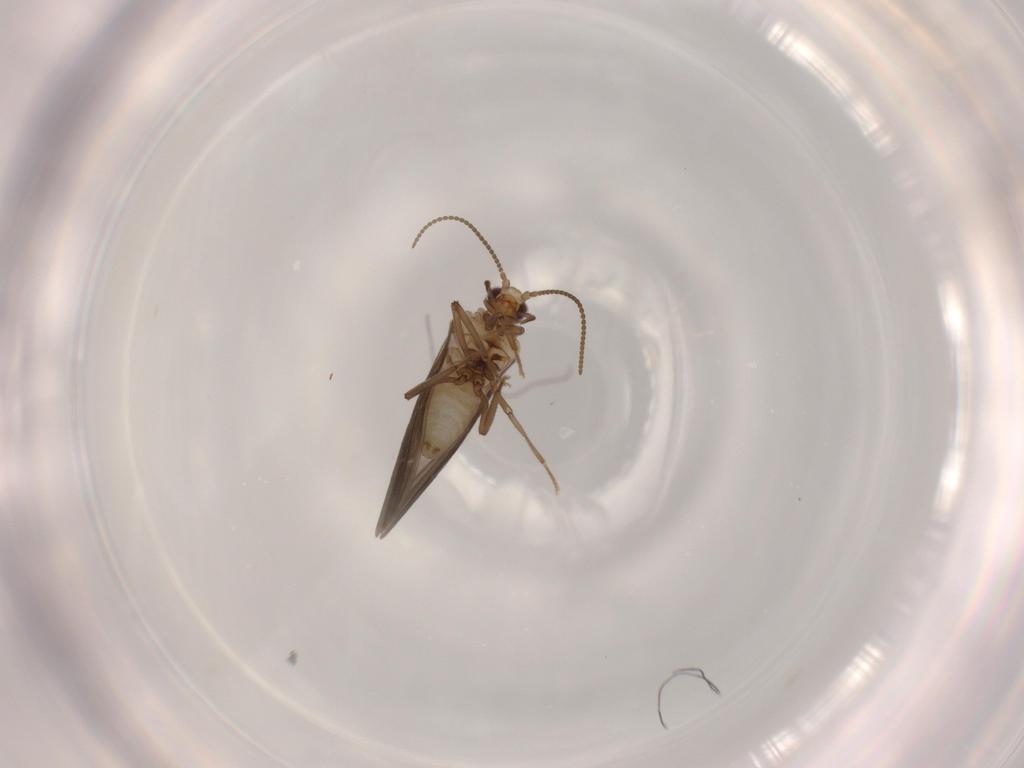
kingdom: Animalia
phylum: Arthropoda
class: Insecta
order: Neuroptera
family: Coniopterygidae
